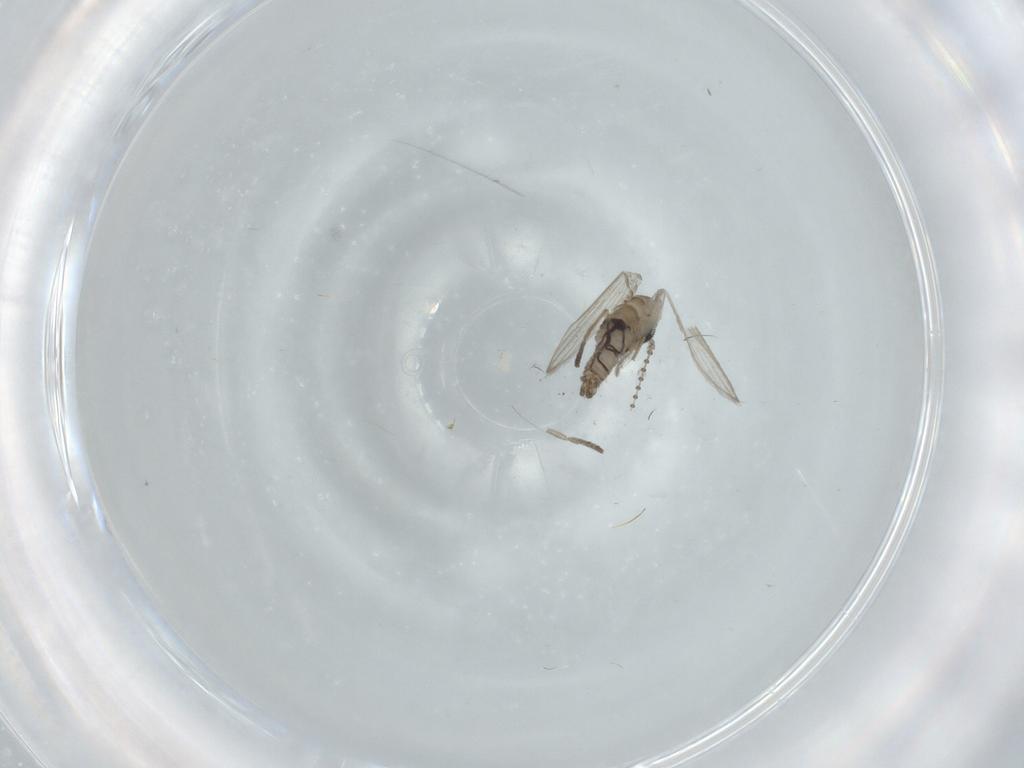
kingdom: Animalia
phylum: Arthropoda
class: Insecta
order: Diptera
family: Psychodidae
